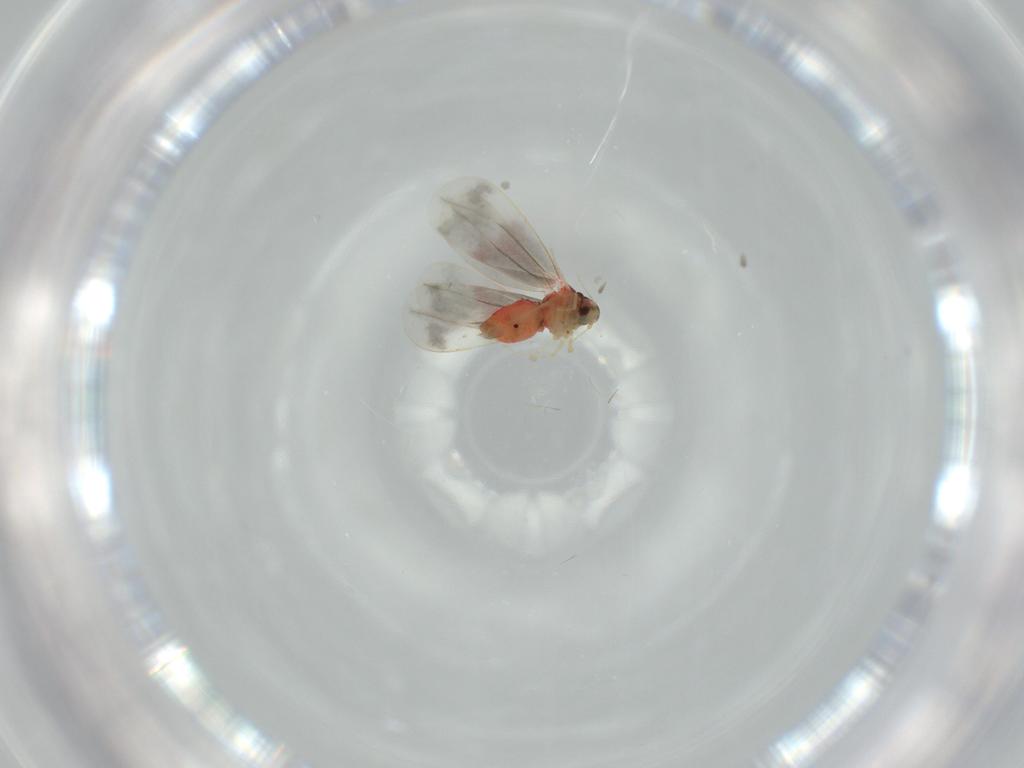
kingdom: Animalia
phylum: Arthropoda
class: Insecta
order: Hemiptera
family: Aleyrodidae
